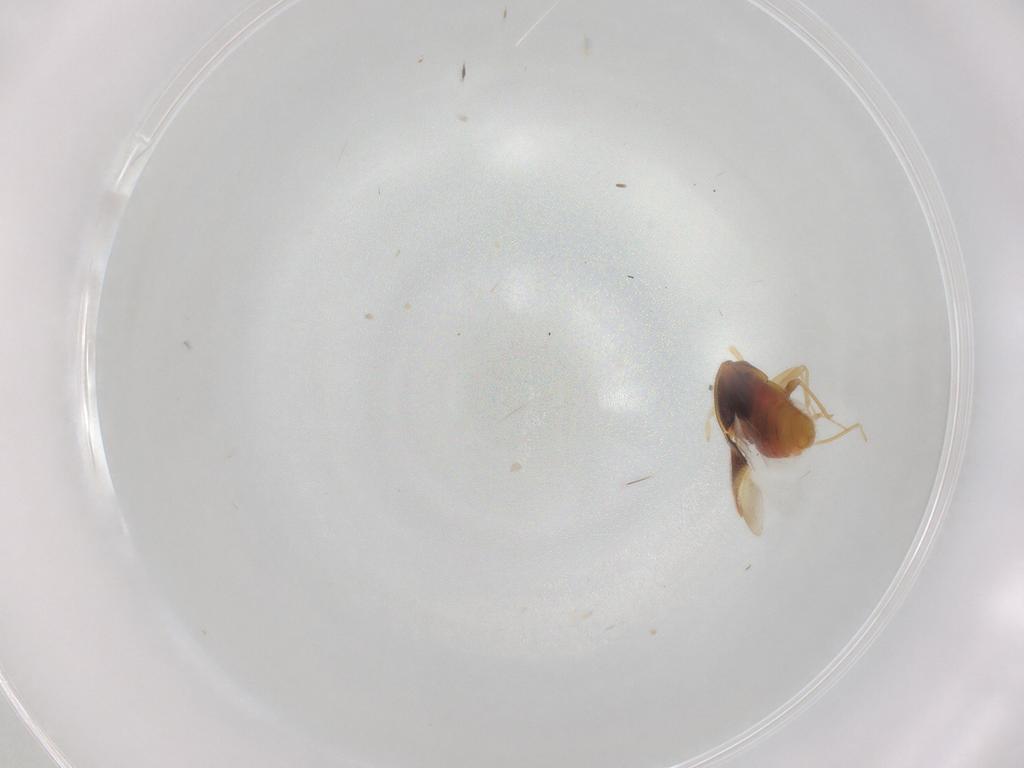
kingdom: Animalia
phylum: Arthropoda
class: Insecta
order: Hemiptera
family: Anthocoridae
